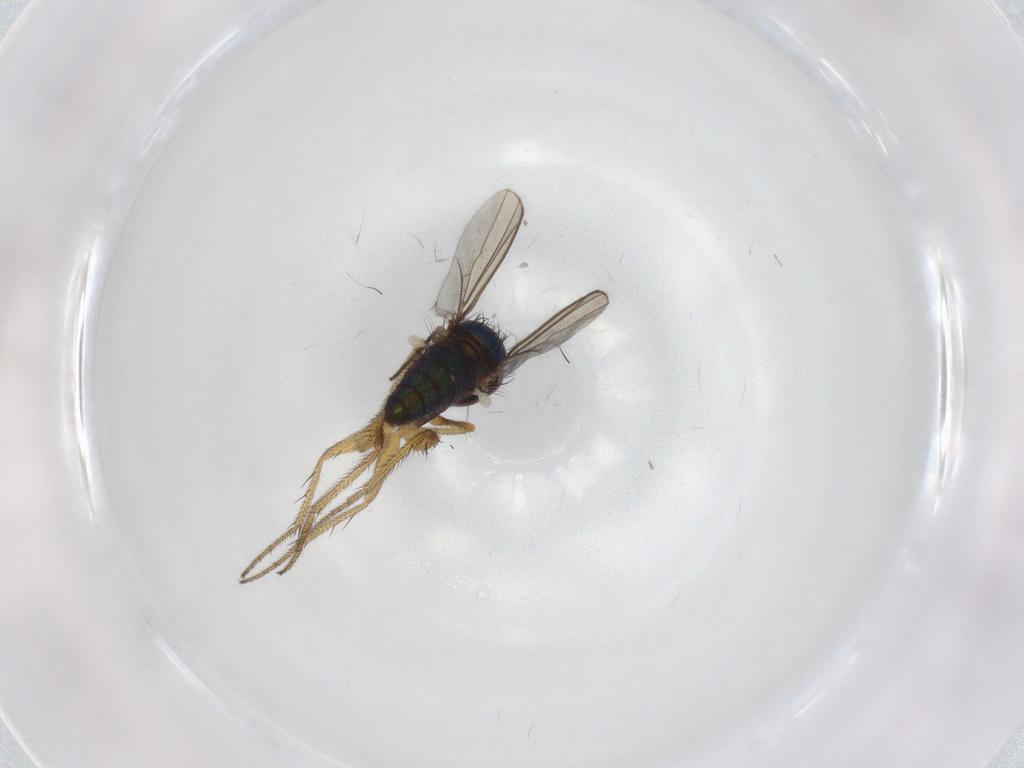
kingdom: Animalia
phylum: Arthropoda
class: Insecta
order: Diptera
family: Chironomidae
